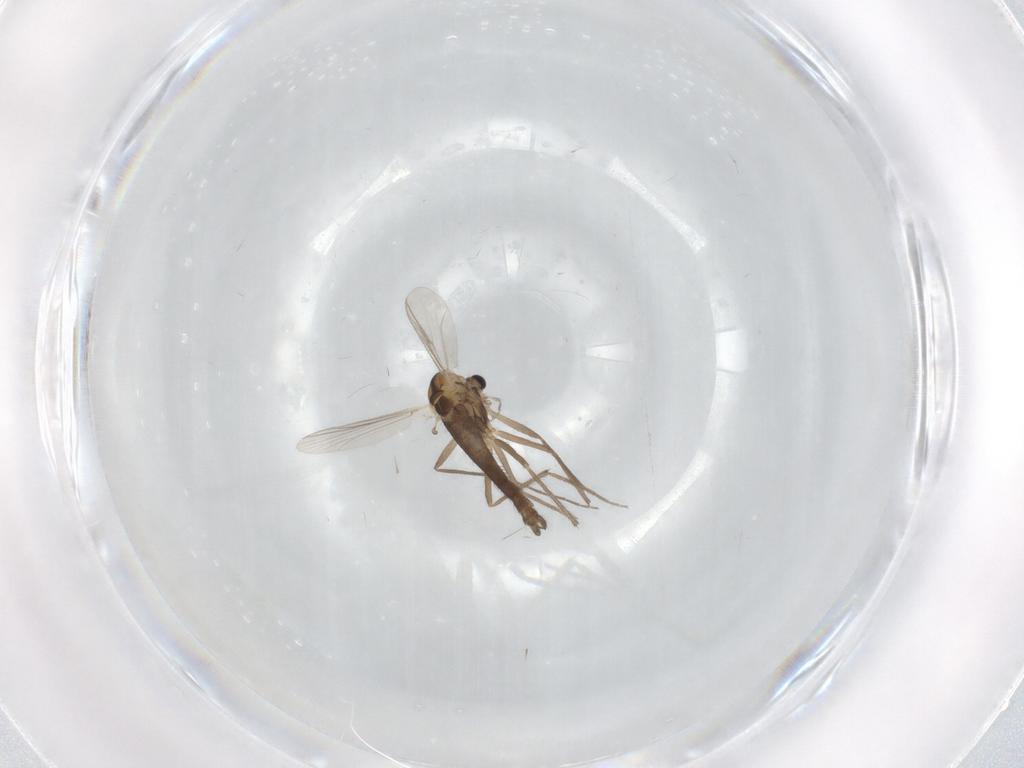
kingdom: Animalia
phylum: Arthropoda
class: Insecta
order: Diptera
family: Chironomidae
